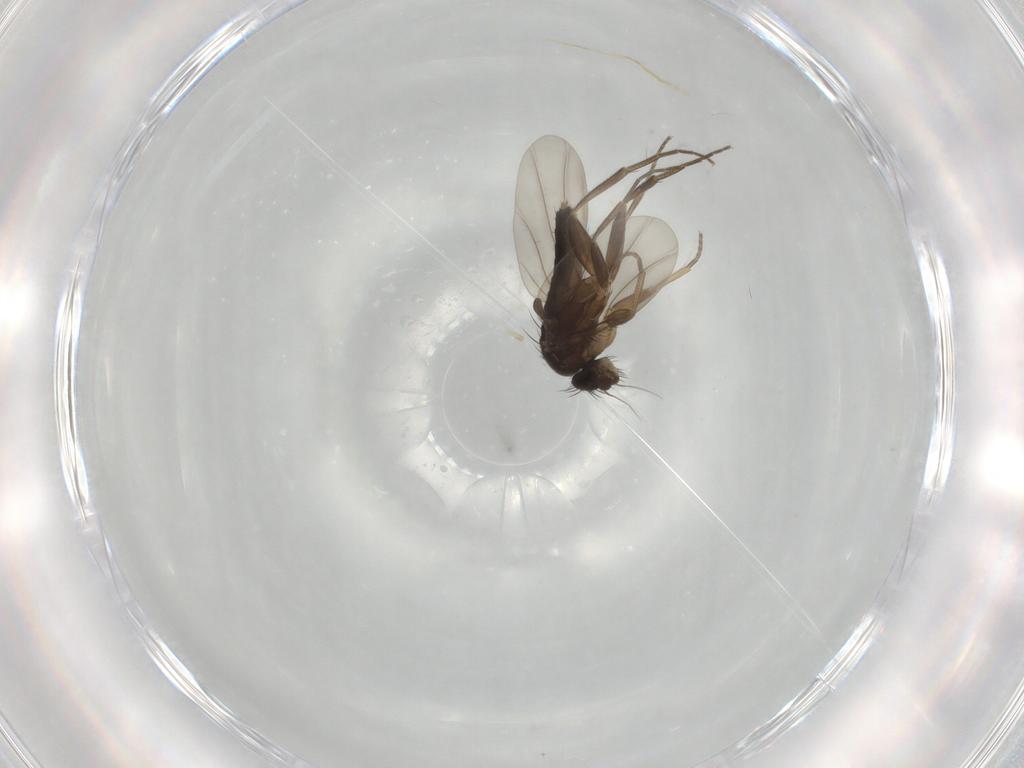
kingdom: Animalia
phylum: Arthropoda
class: Insecta
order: Diptera
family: Phoridae
